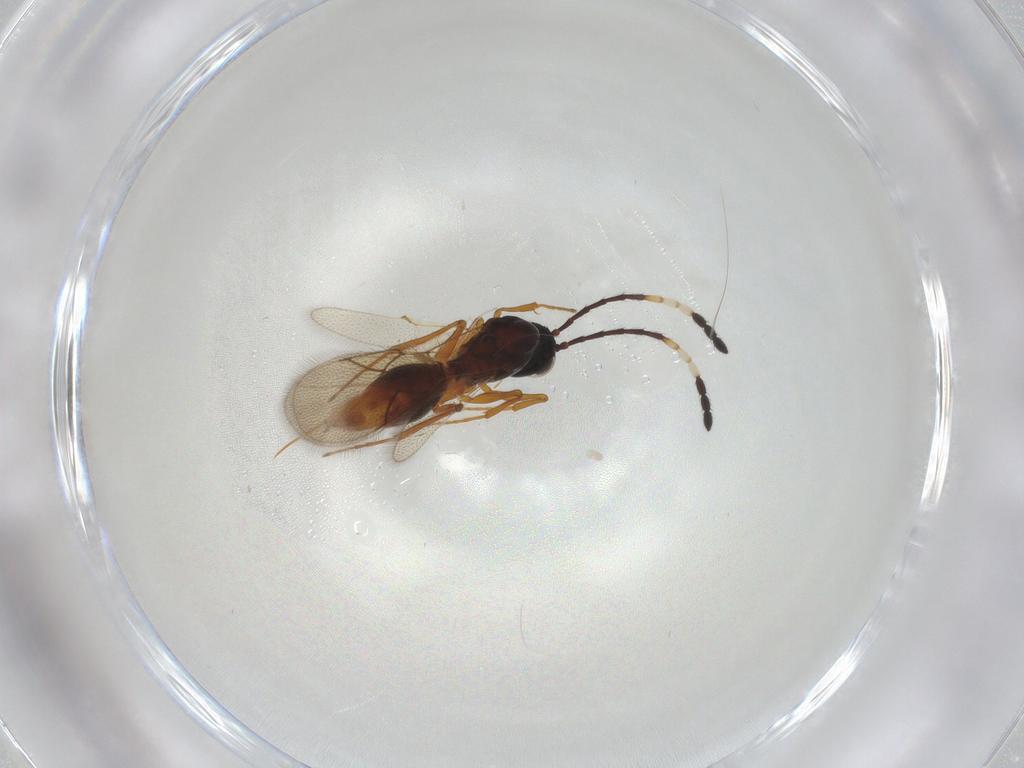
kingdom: Animalia
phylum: Arthropoda
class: Insecta
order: Hymenoptera
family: Figitidae
